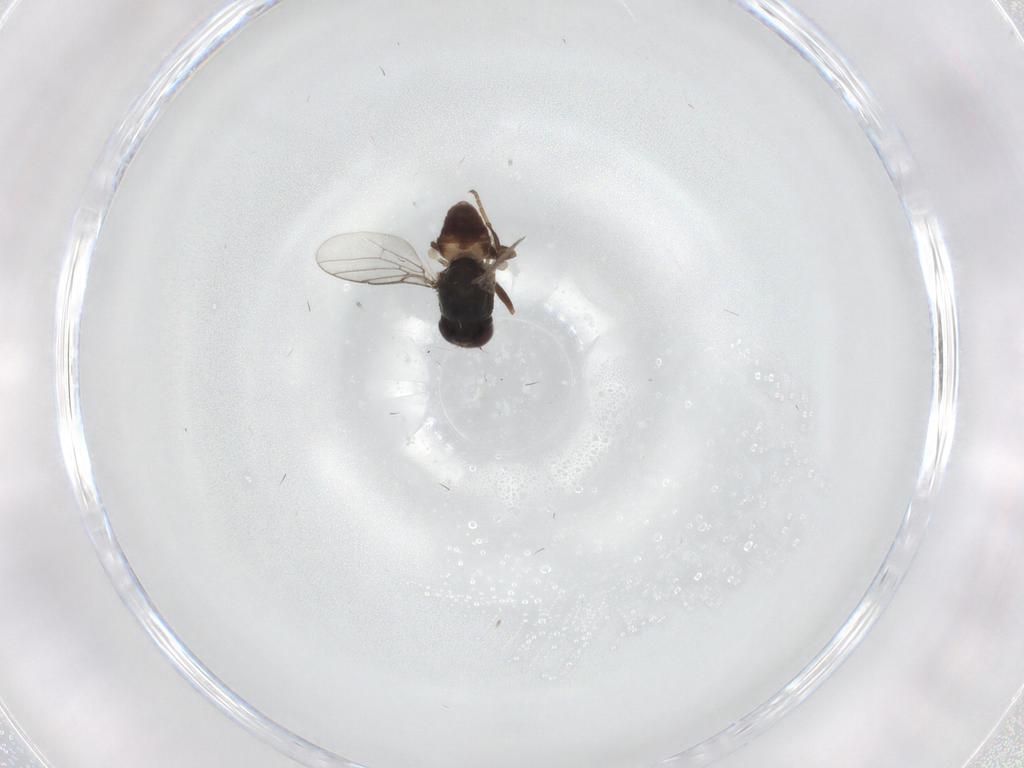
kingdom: Animalia
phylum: Arthropoda
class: Insecta
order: Diptera
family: Chloropidae
